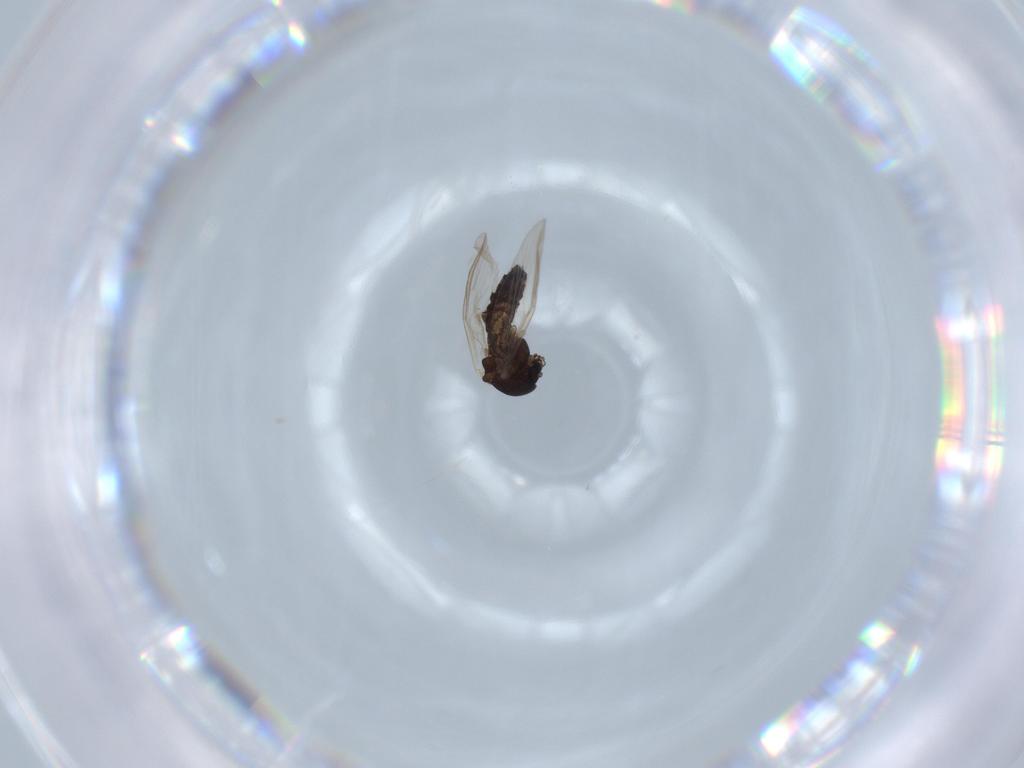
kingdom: Animalia
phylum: Arthropoda
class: Insecta
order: Diptera
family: Chironomidae
